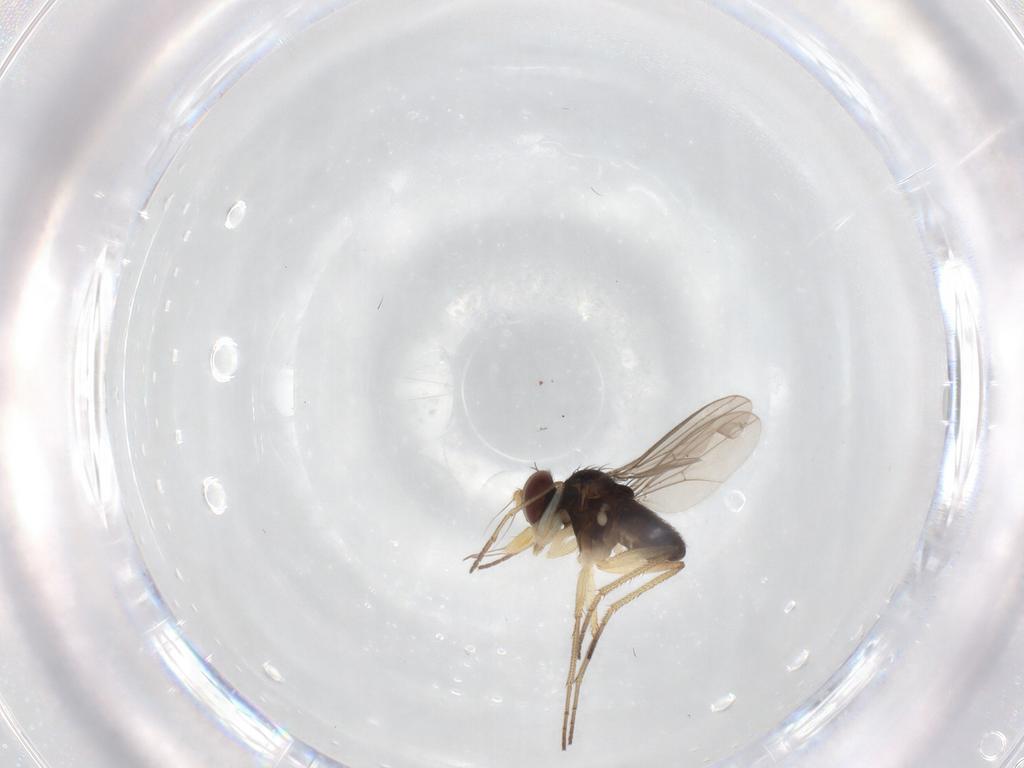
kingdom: Animalia
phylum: Arthropoda
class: Insecta
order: Diptera
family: Dolichopodidae
